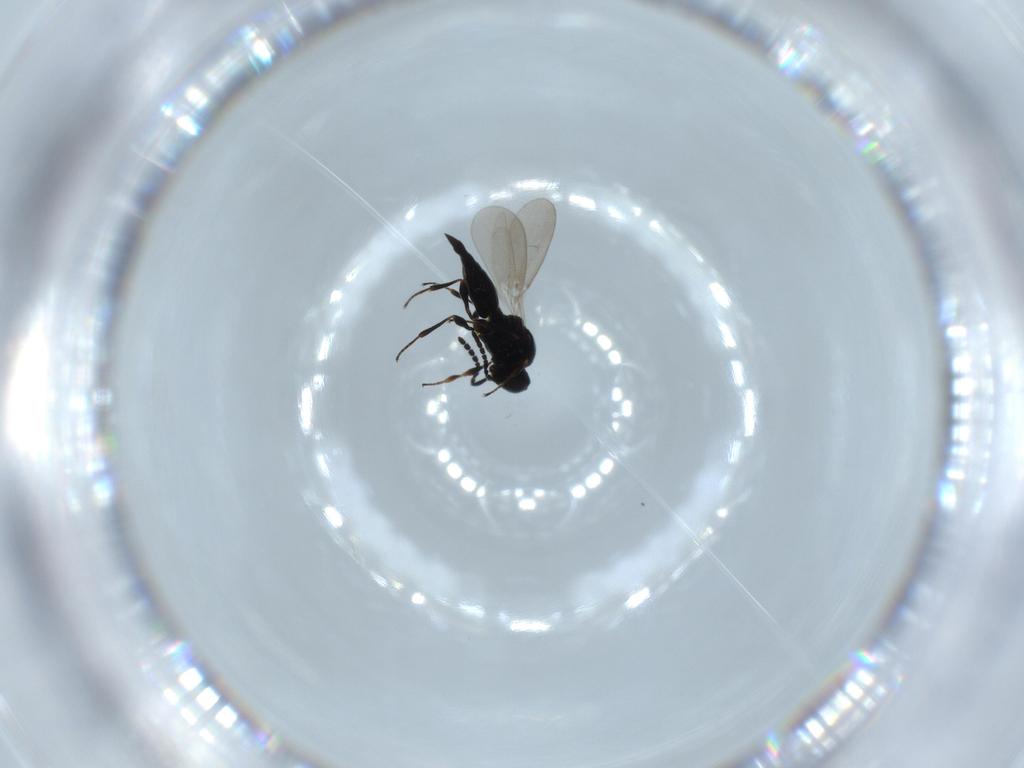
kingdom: Animalia
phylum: Arthropoda
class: Insecta
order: Hymenoptera
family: Platygastridae
